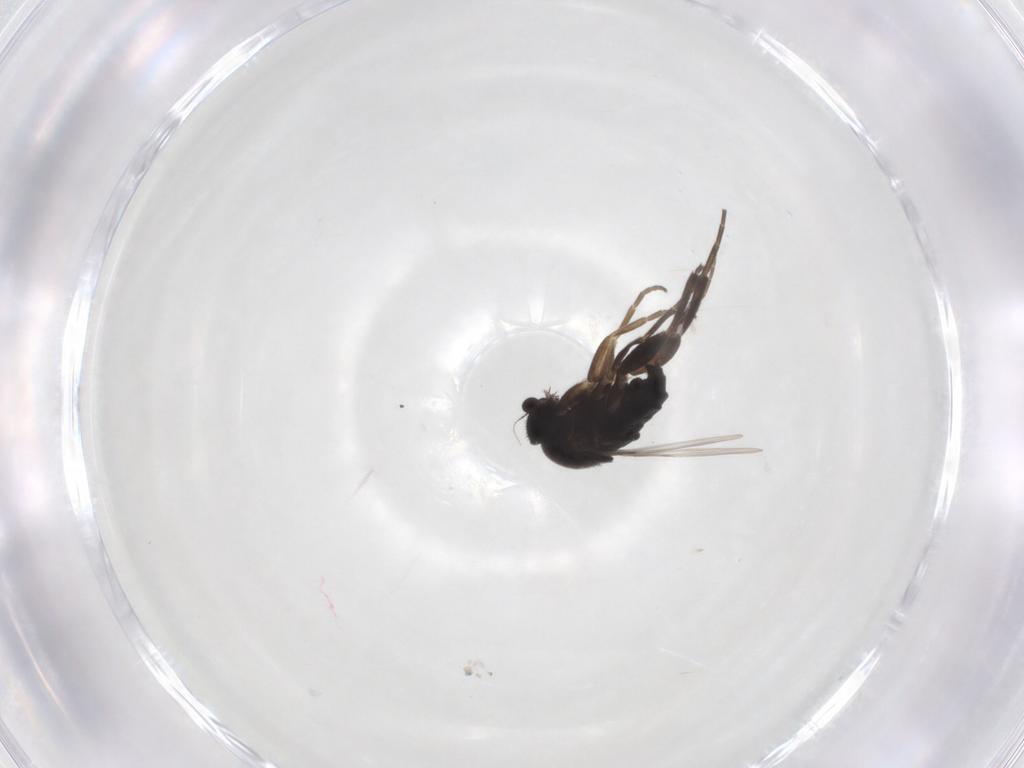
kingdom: Animalia
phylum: Arthropoda
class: Insecta
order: Diptera
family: Phoridae
